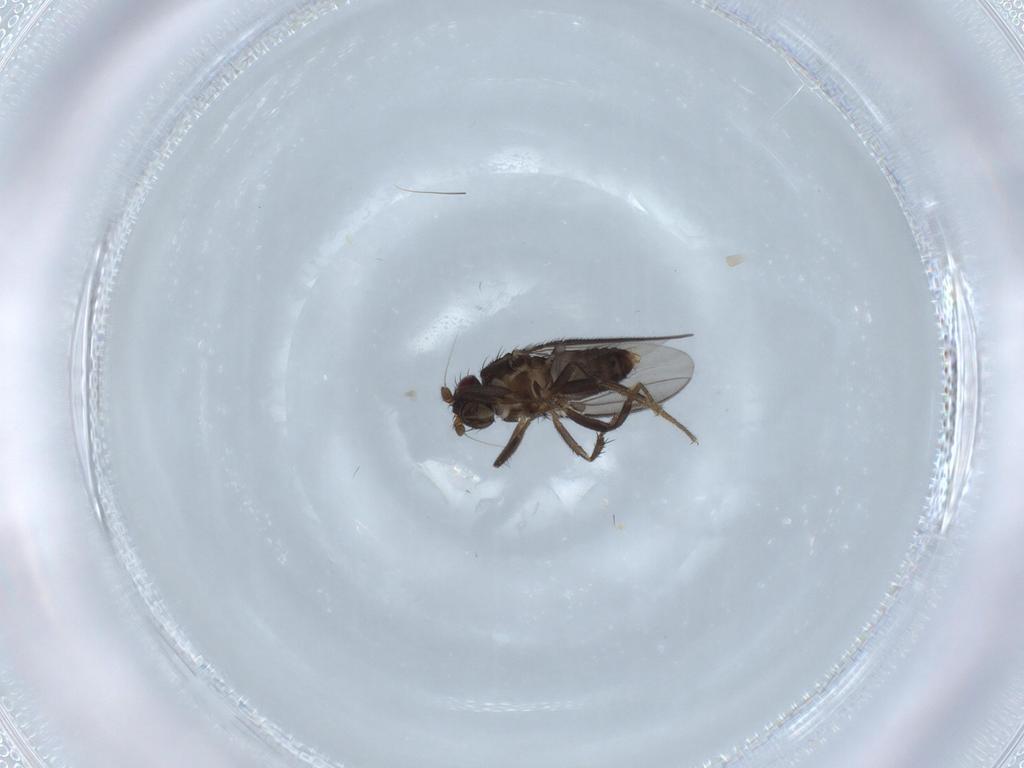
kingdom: Animalia
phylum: Arthropoda
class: Insecta
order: Diptera
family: Sphaeroceridae
